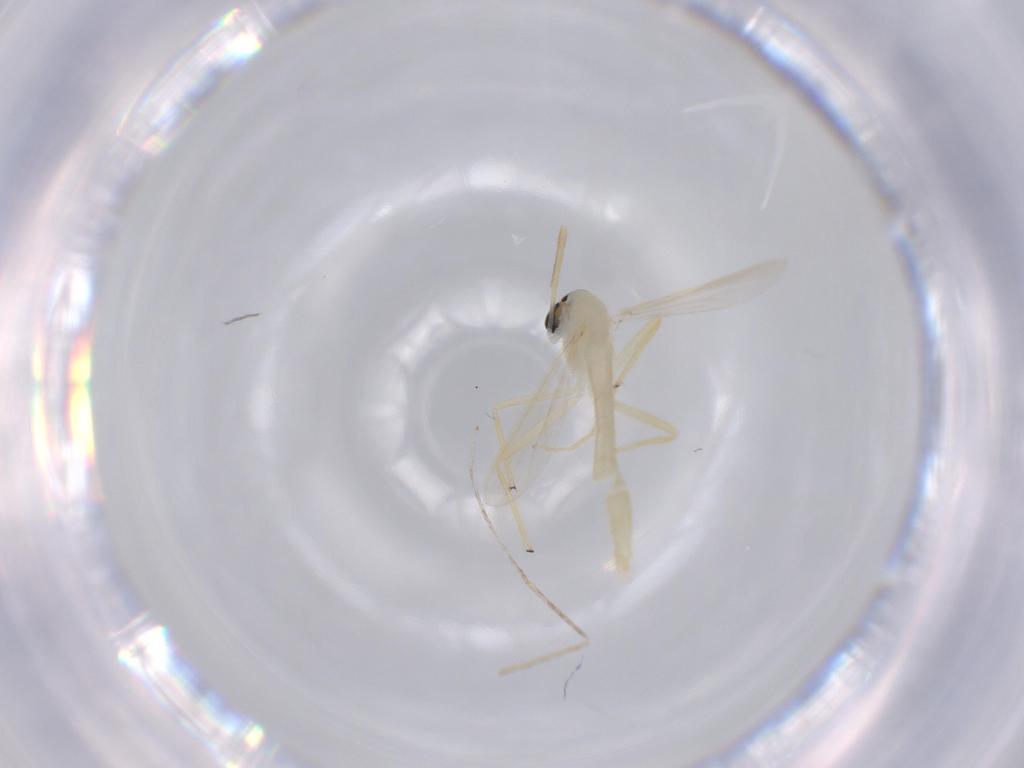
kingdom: Animalia
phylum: Arthropoda
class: Insecta
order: Diptera
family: Chironomidae
